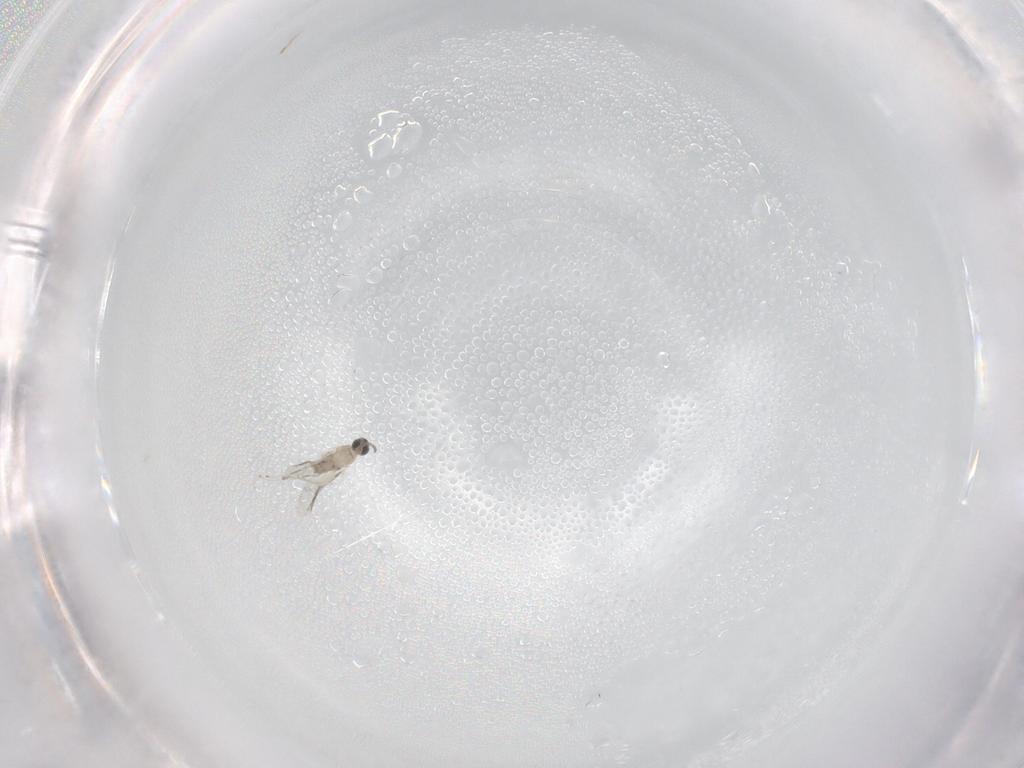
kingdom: Animalia
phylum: Arthropoda
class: Insecta
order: Diptera
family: Cecidomyiidae
